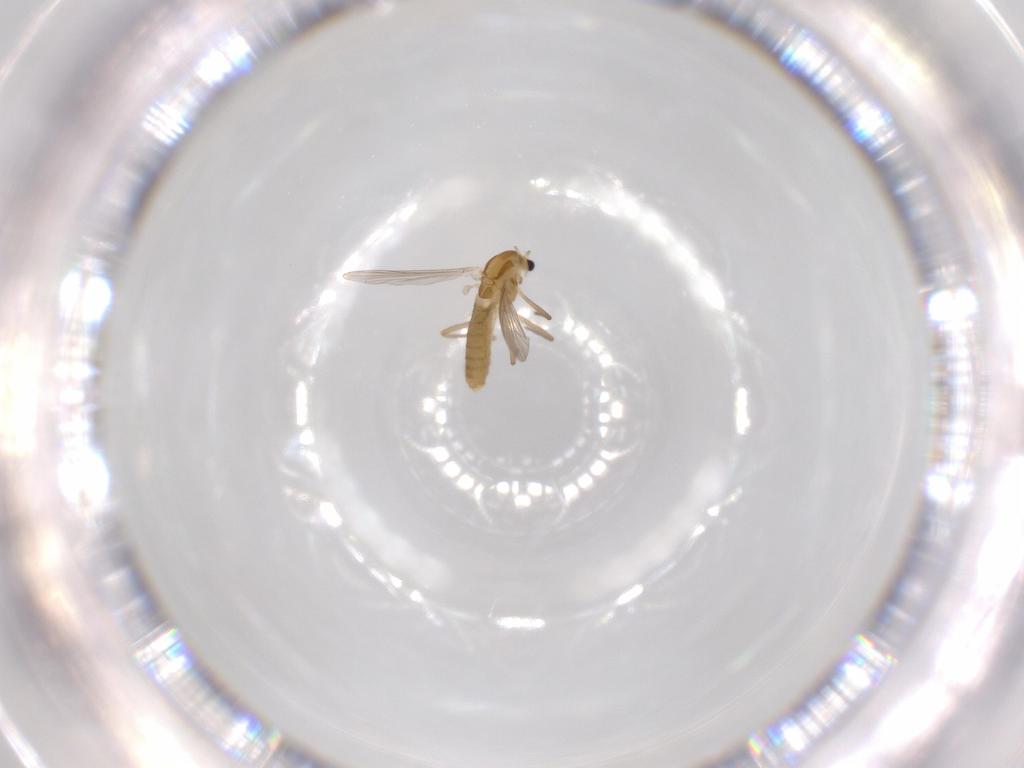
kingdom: Animalia
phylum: Arthropoda
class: Insecta
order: Diptera
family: Chironomidae
